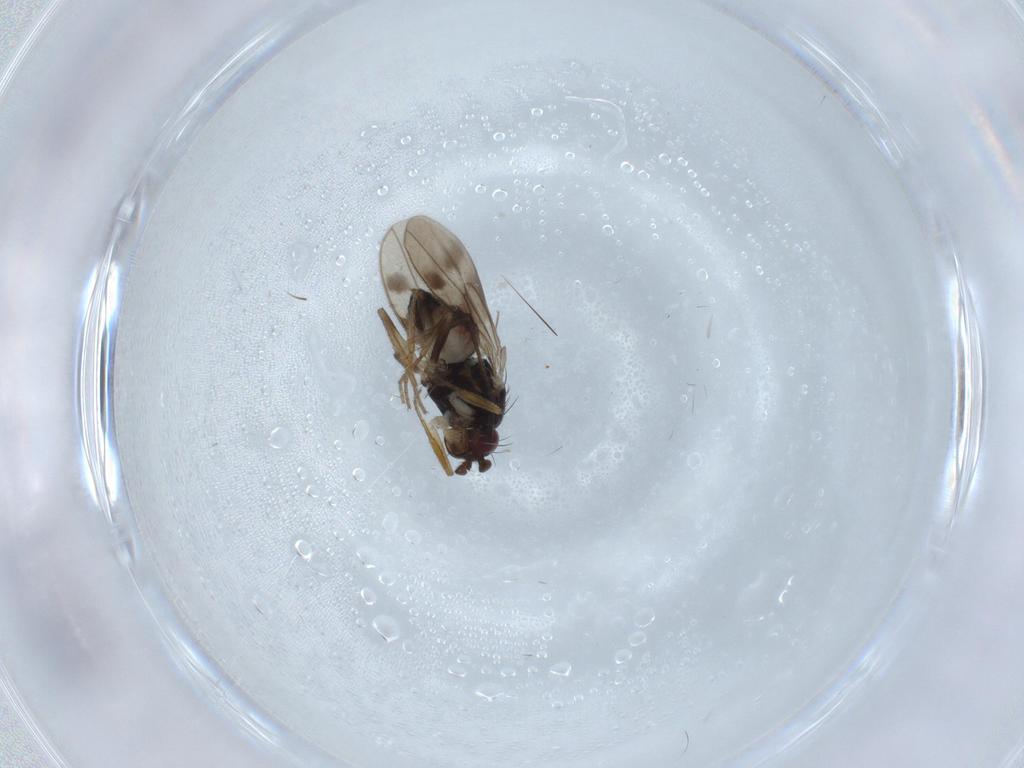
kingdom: Animalia
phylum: Arthropoda
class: Insecta
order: Diptera
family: Sphaeroceridae
